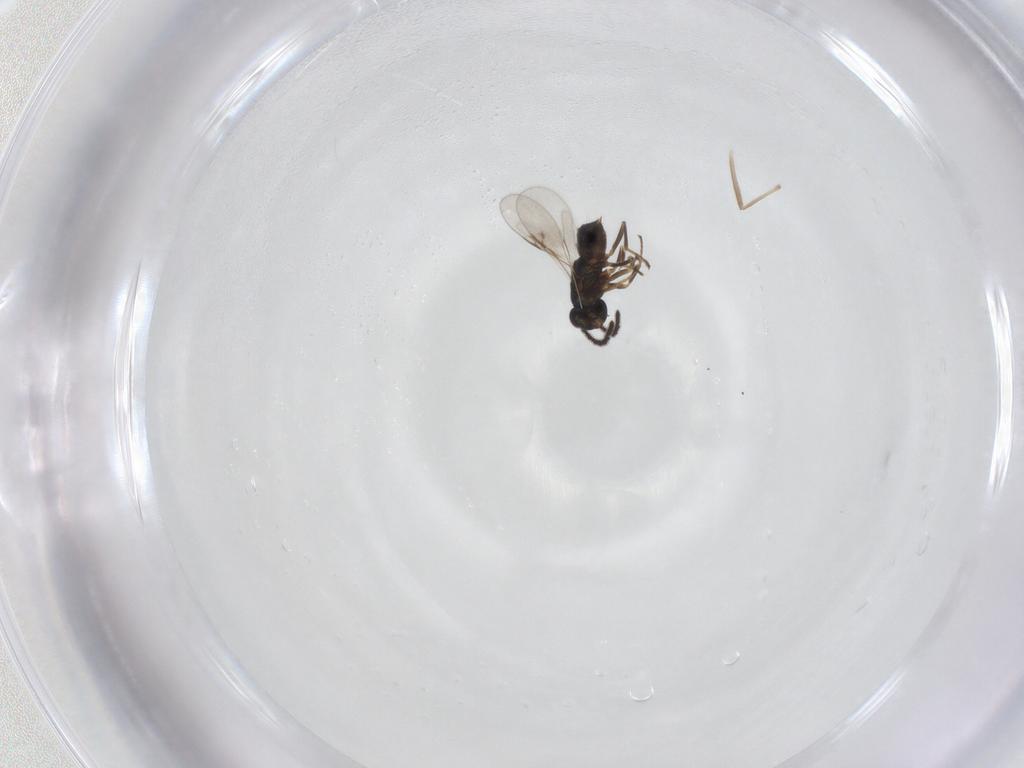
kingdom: Animalia
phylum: Arthropoda
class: Insecta
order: Hymenoptera
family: Encyrtidae
